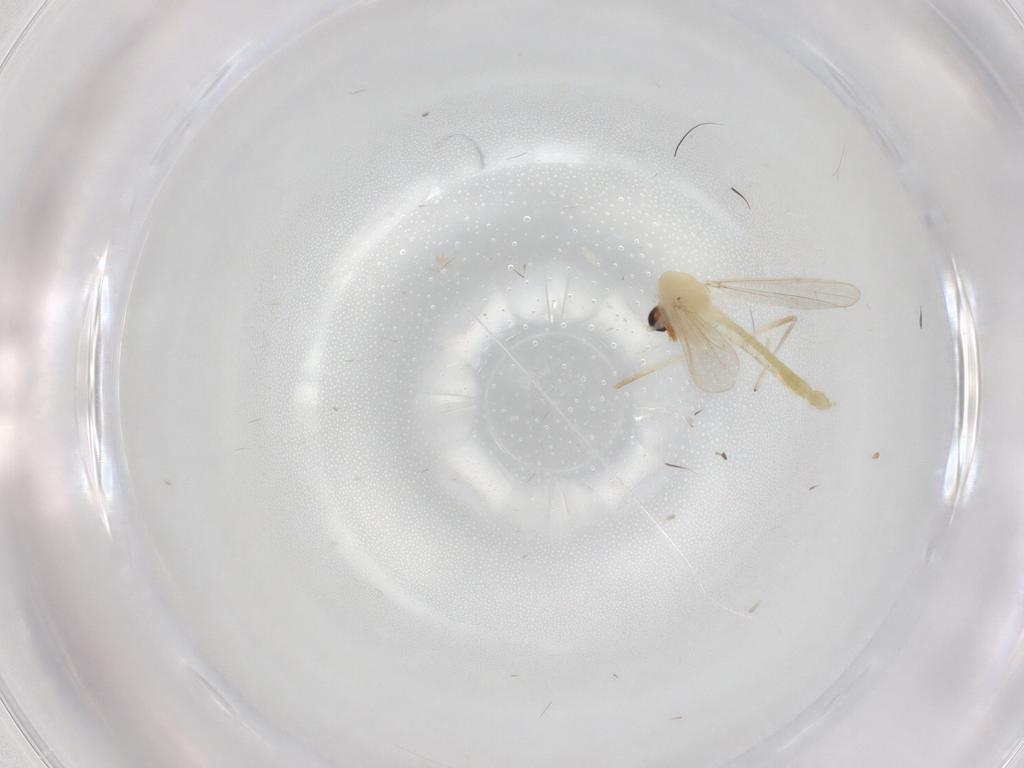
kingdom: Animalia
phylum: Arthropoda
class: Insecta
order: Diptera
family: Chironomidae
